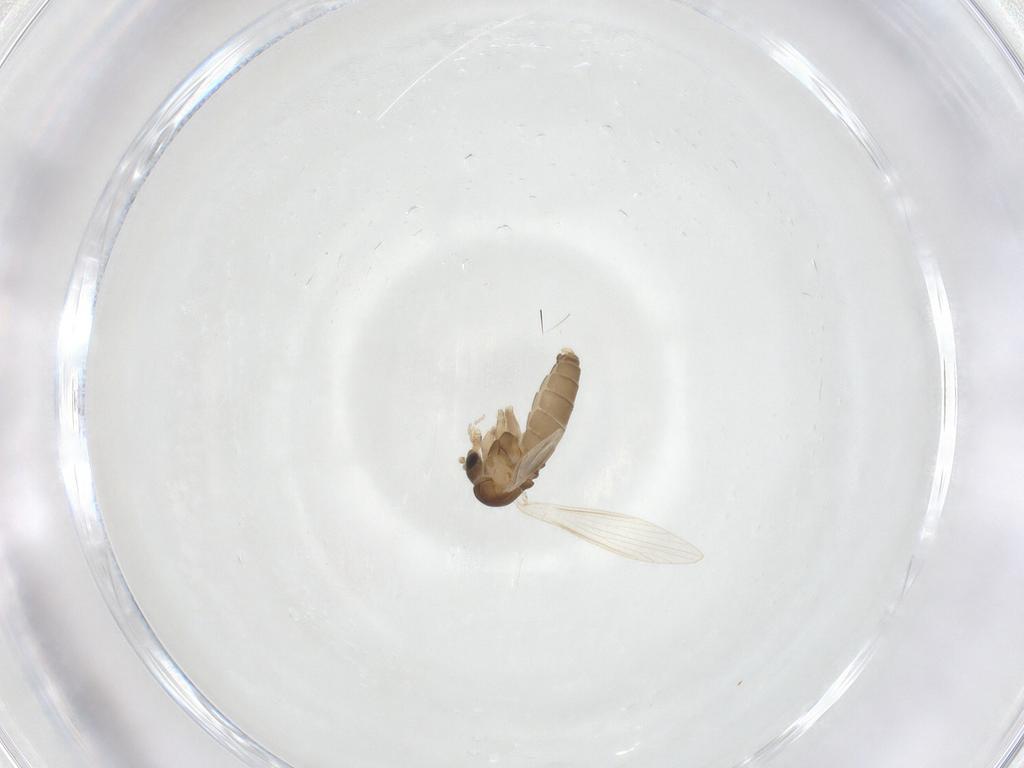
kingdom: Animalia
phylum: Arthropoda
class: Insecta
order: Diptera
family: Psychodidae
